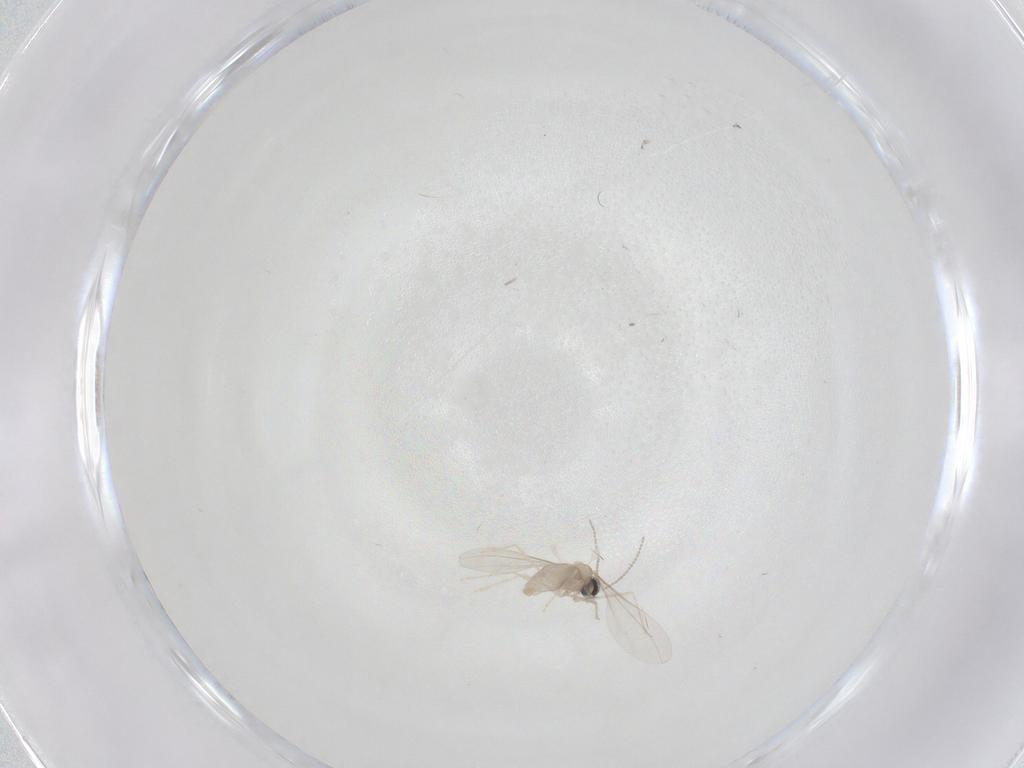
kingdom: Animalia
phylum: Arthropoda
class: Insecta
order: Diptera
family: Cecidomyiidae
